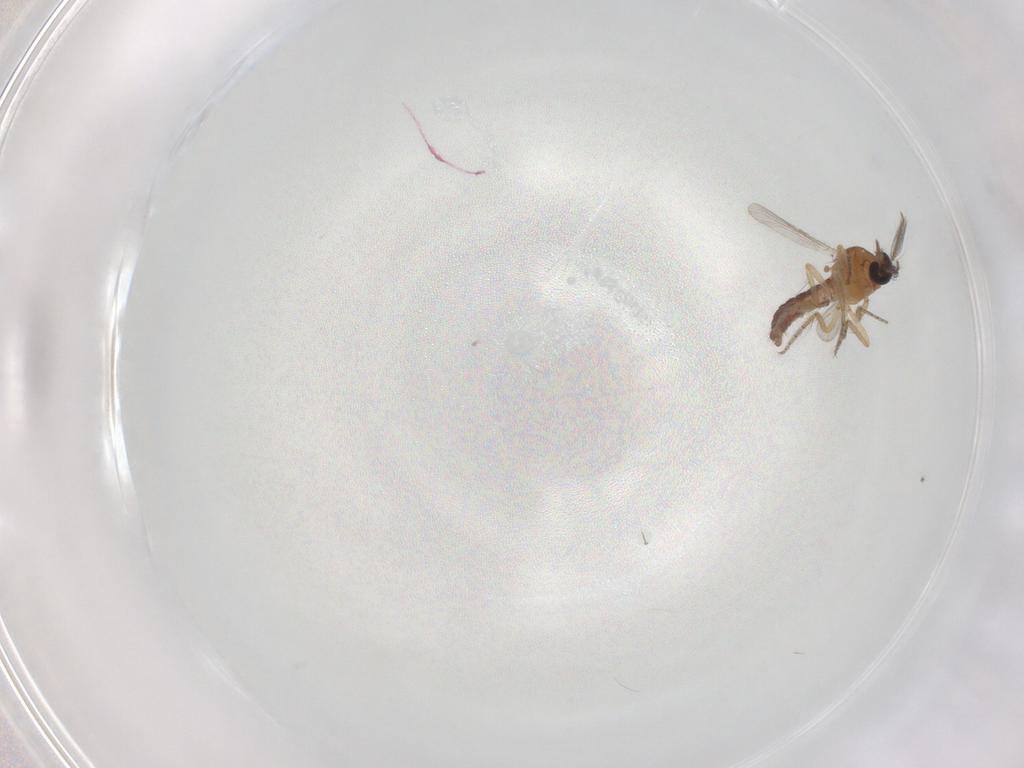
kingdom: Animalia
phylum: Arthropoda
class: Insecta
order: Diptera
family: Ceratopogonidae
